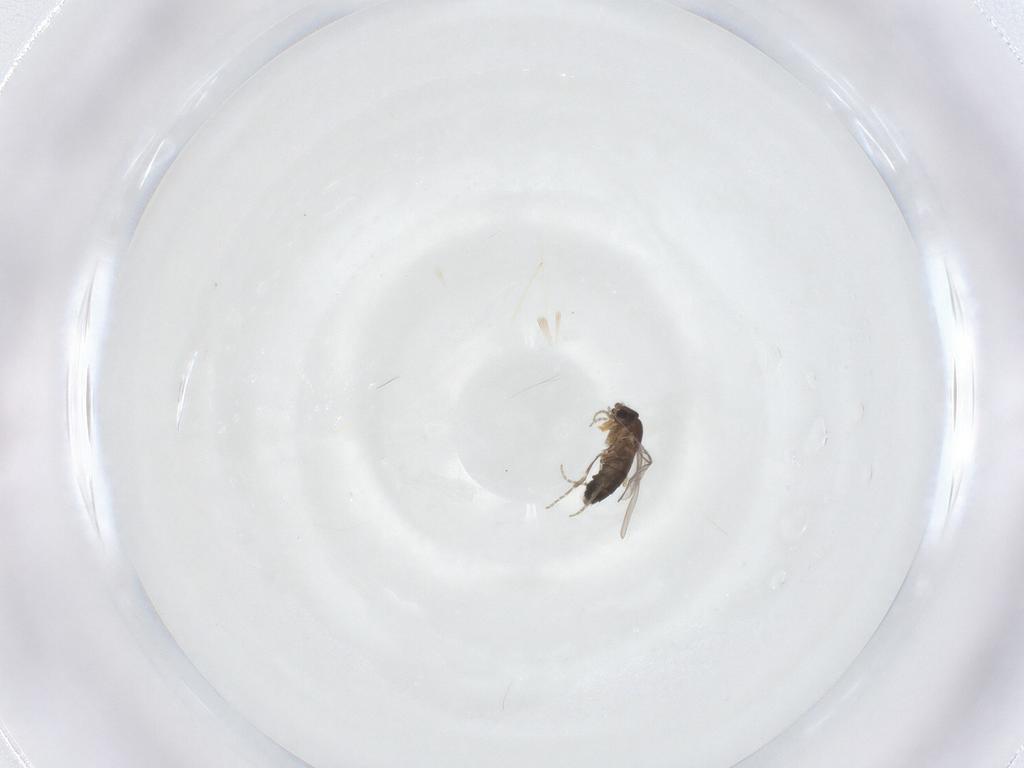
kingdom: Animalia
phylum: Arthropoda
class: Insecta
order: Diptera
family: Phoridae
